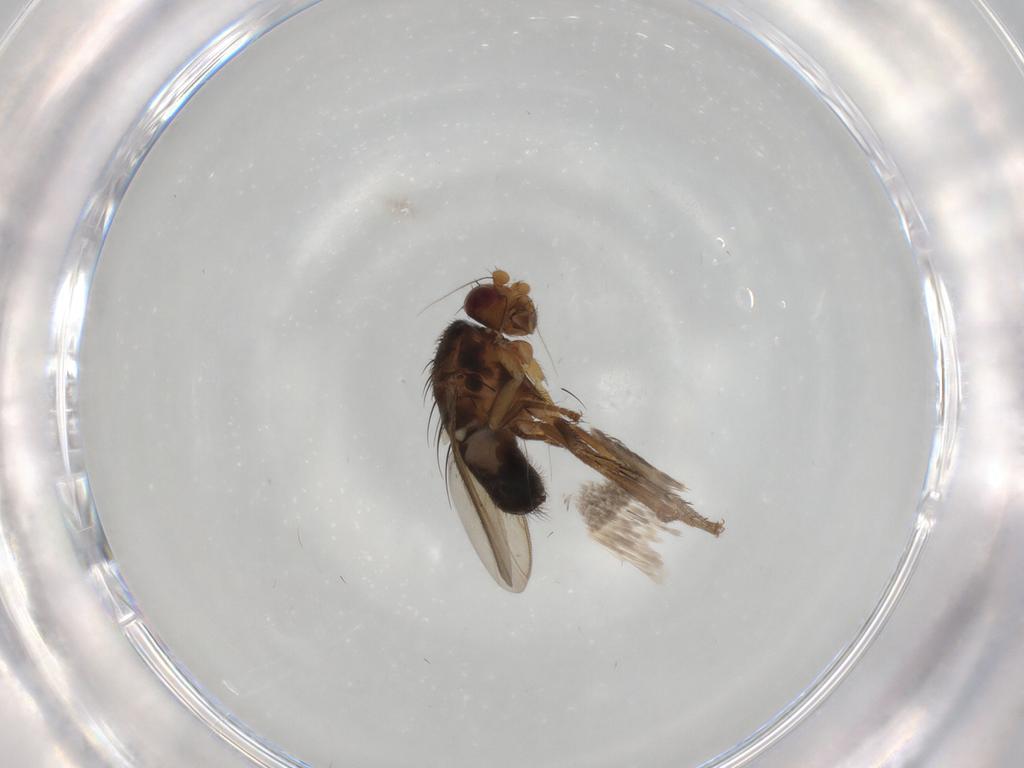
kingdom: Animalia
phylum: Arthropoda
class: Insecta
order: Diptera
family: Sphaeroceridae
